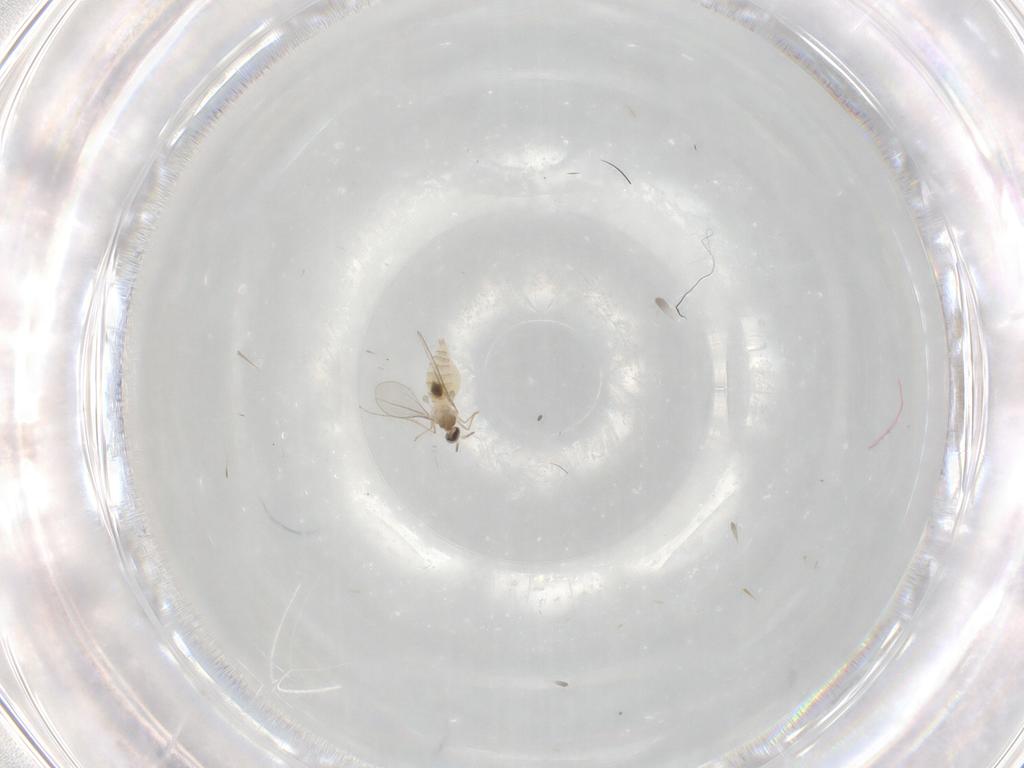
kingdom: Animalia
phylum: Arthropoda
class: Insecta
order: Diptera
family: Cecidomyiidae
